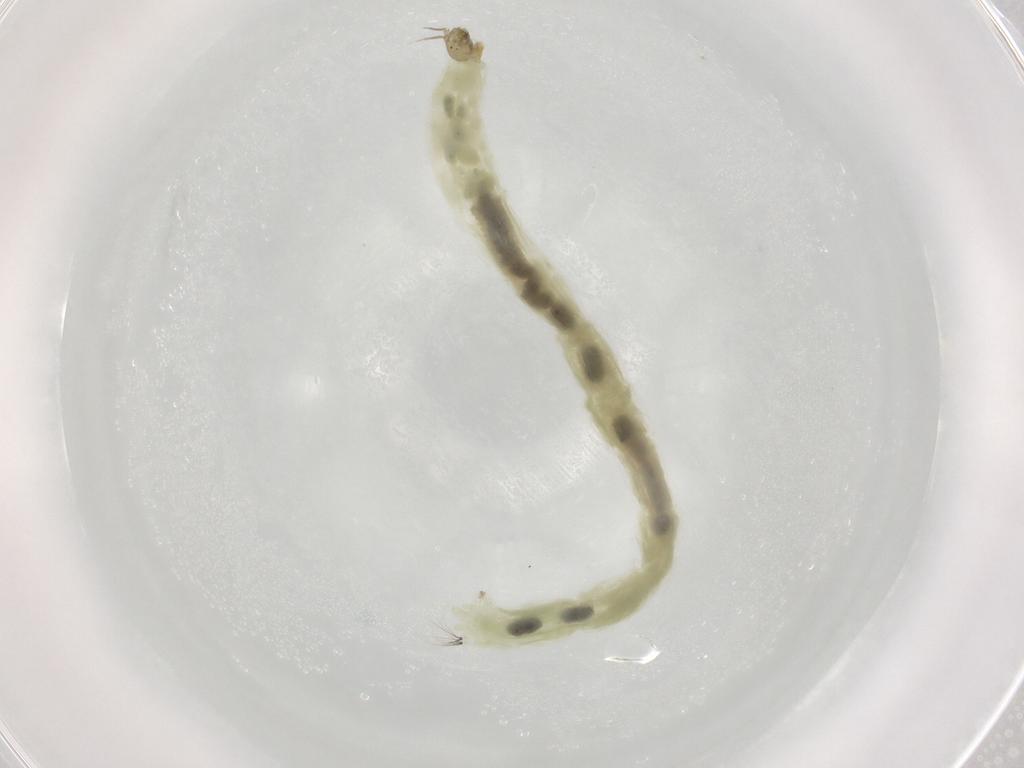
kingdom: Animalia
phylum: Arthropoda
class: Insecta
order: Diptera
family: Chironomidae
